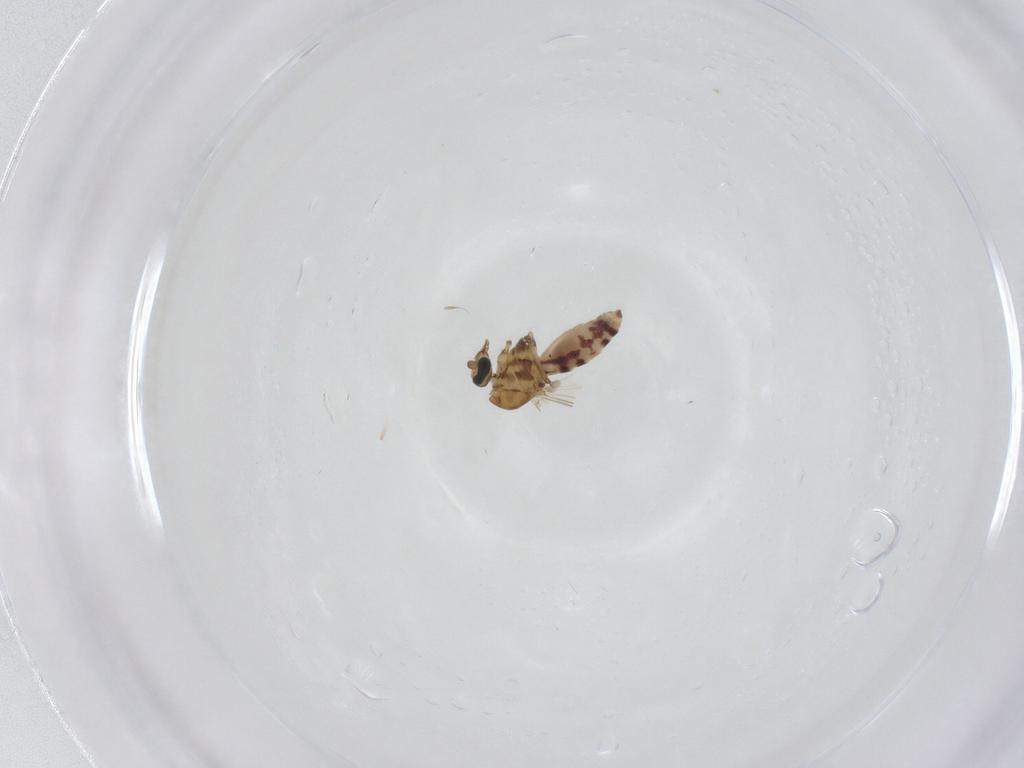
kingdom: Animalia
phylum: Arthropoda
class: Insecta
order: Diptera
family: Ceratopogonidae
